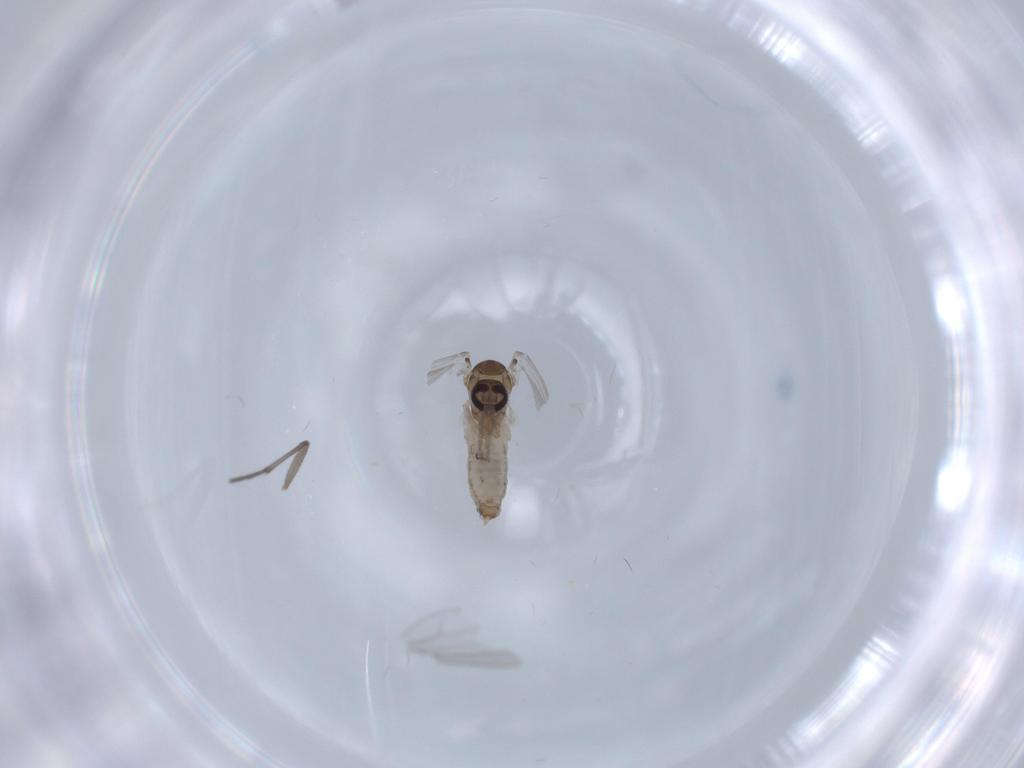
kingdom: Animalia
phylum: Arthropoda
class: Insecta
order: Diptera
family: Psychodidae
